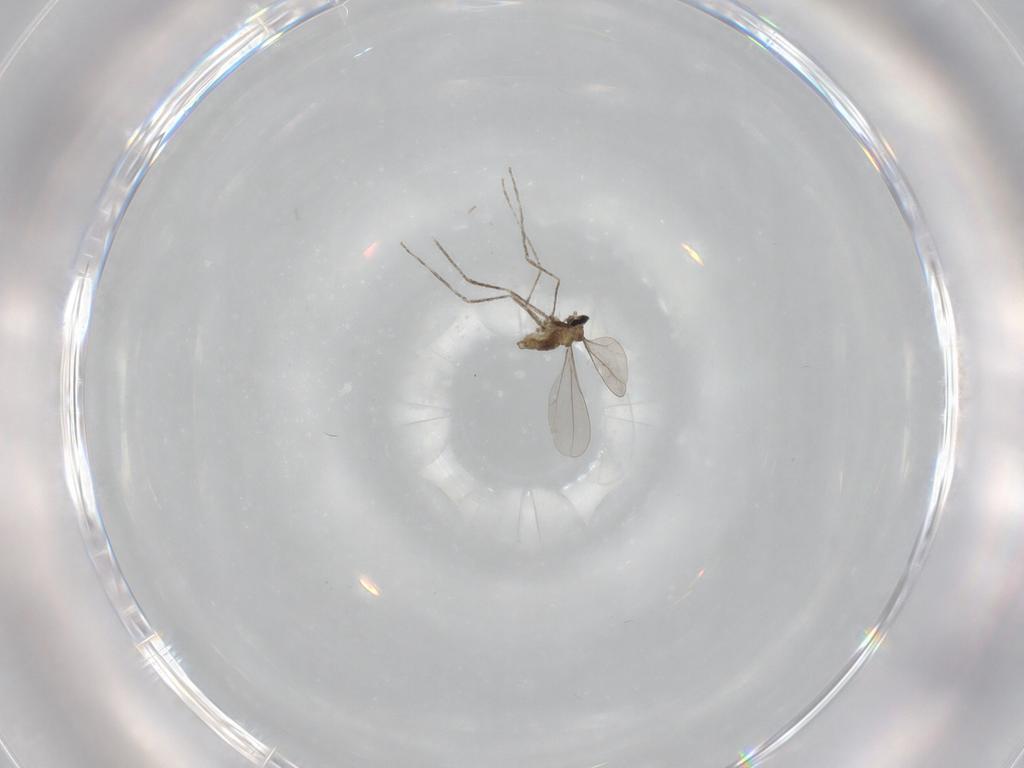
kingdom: Animalia
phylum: Arthropoda
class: Insecta
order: Diptera
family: Cecidomyiidae
